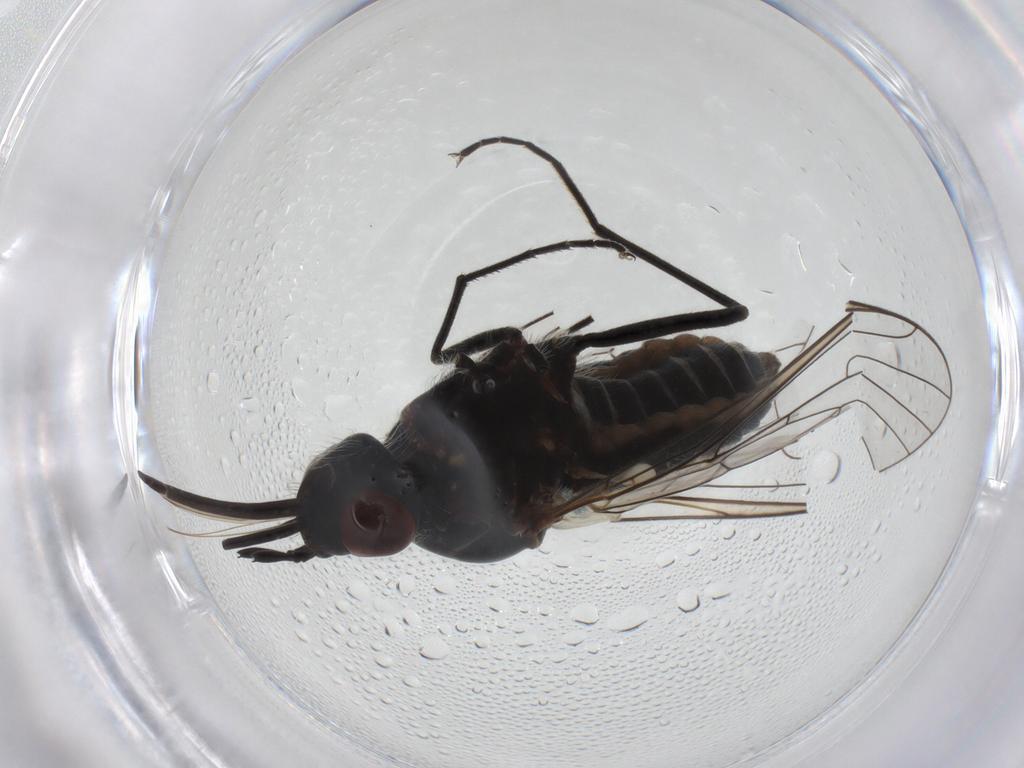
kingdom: Animalia
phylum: Arthropoda
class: Insecta
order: Diptera
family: Bombyliidae
